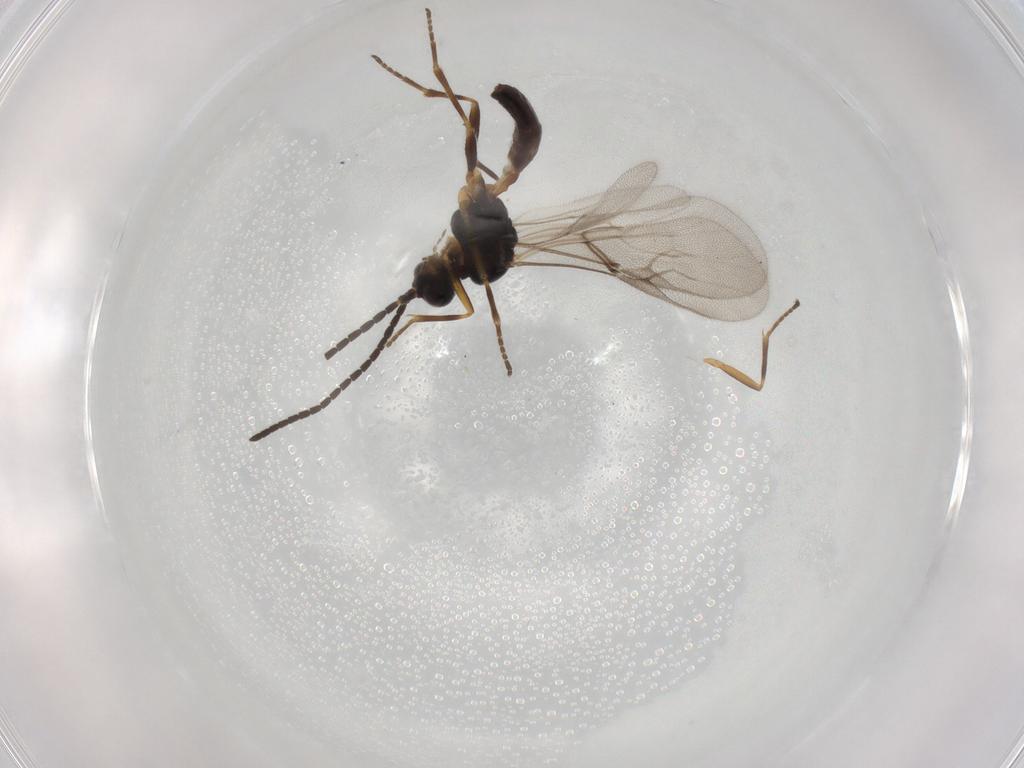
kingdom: Animalia
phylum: Arthropoda
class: Insecta
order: Hymenoptera
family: Braconidae
